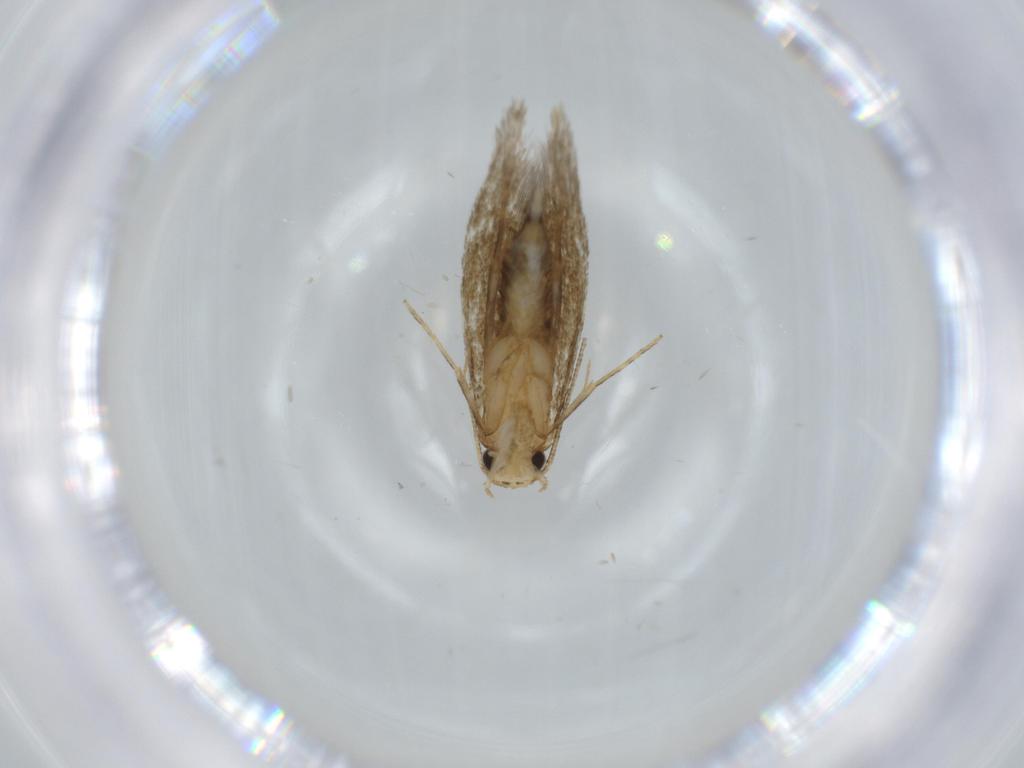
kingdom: Animalia
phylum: Arthropoda
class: Insecta
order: Lepidoptera
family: Tineidae
